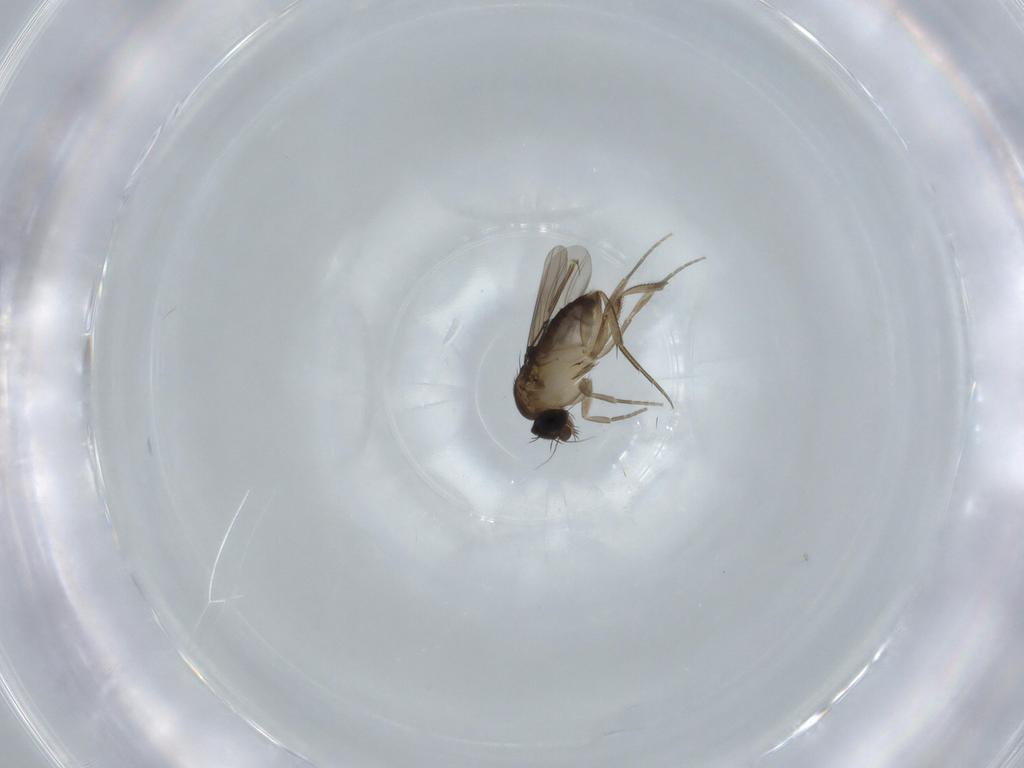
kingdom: Animalia
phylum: Arthropoda
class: Insecta
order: Diptera
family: Phoridae
